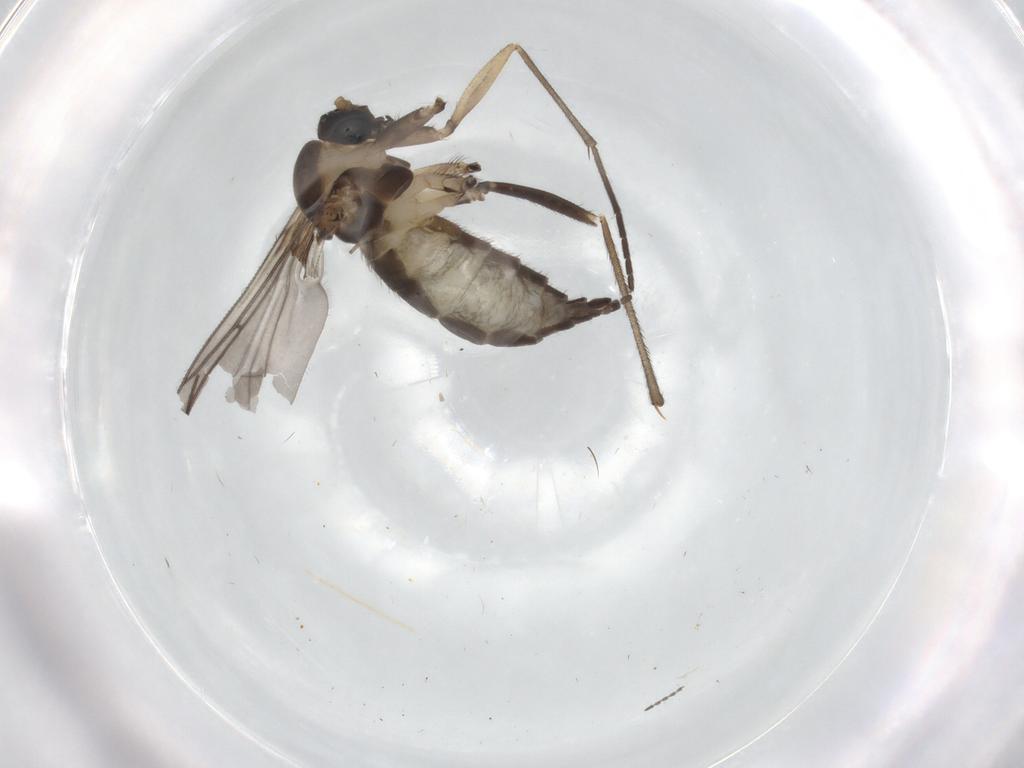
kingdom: Animalia
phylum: Arthropoda
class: Insecta
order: Diptera
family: Sciaridae
